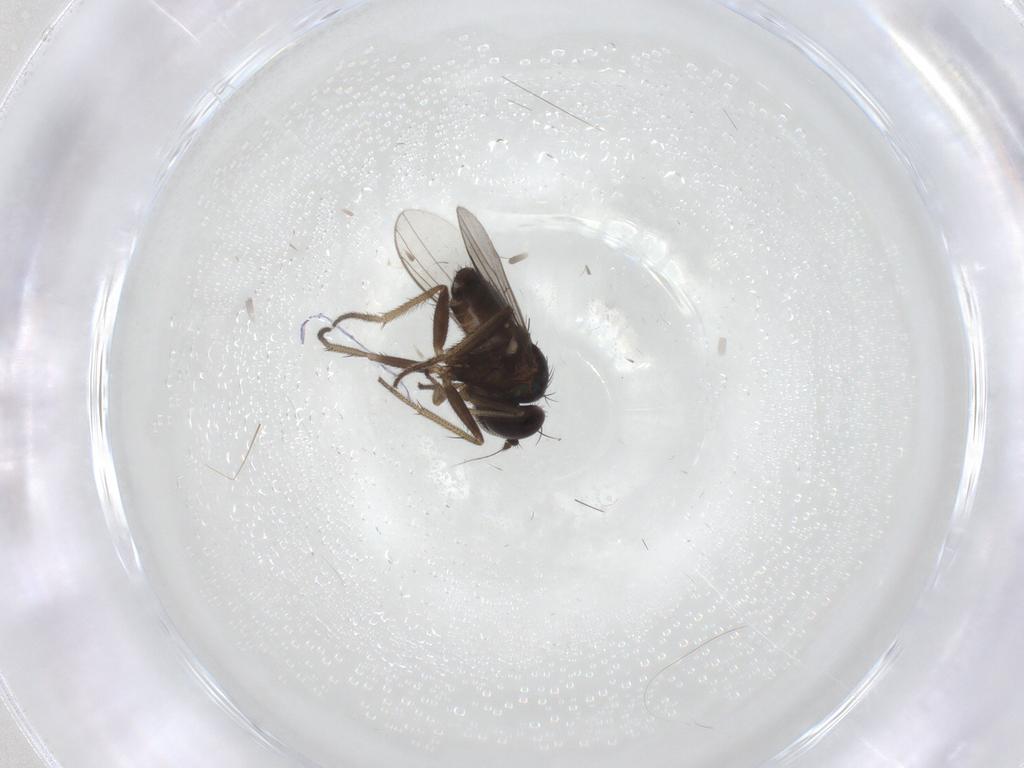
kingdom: Animalia
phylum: Arthropoda
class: Insecta
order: Diptera
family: Dolichopodidae
